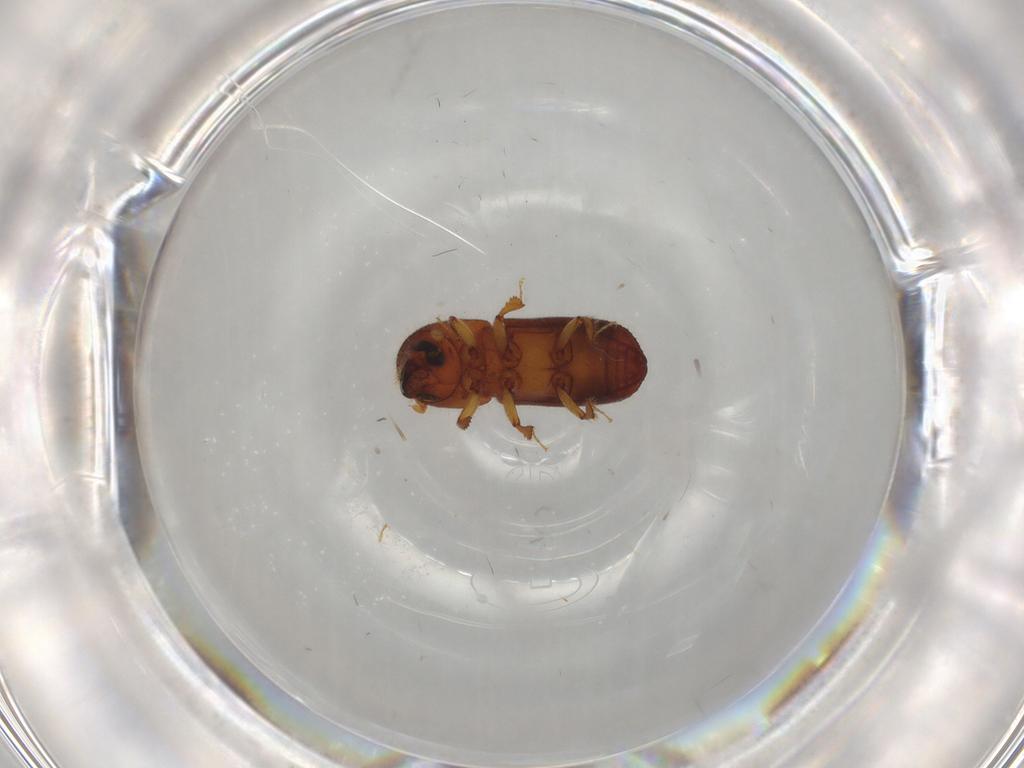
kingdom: Animalia
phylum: Arthropoda
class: Insecta
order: Coleoptera
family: Curculionidae
